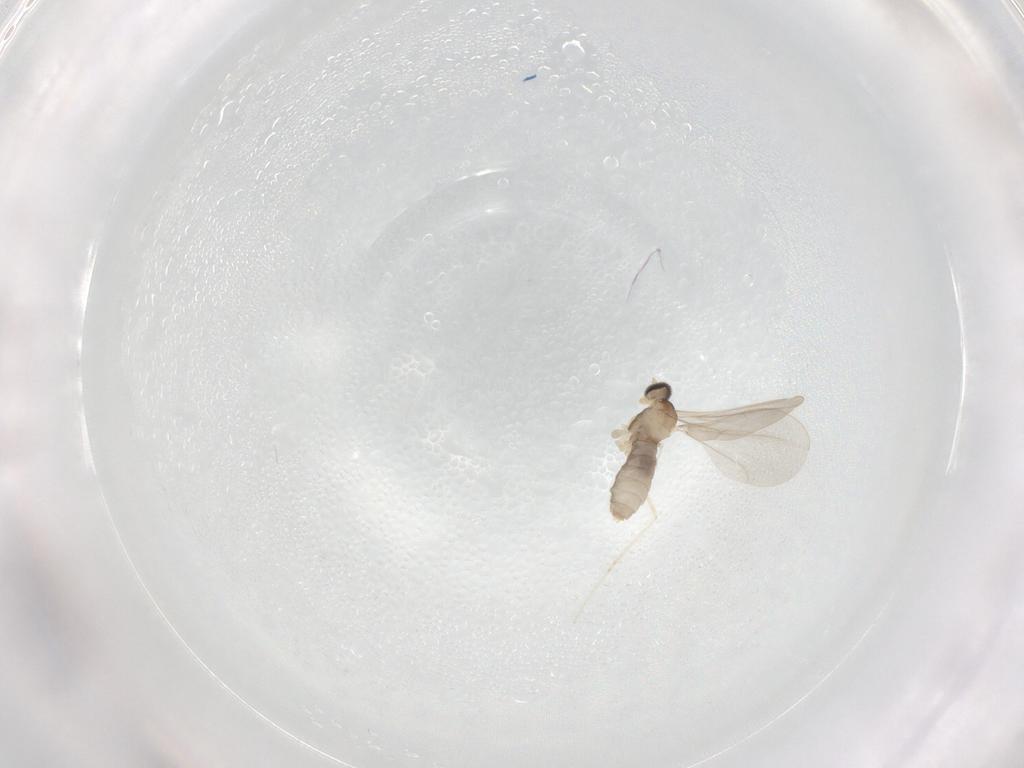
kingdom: Animalia
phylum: Arthropoda
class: Insecta
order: Diptera
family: Cecidomyiidae
